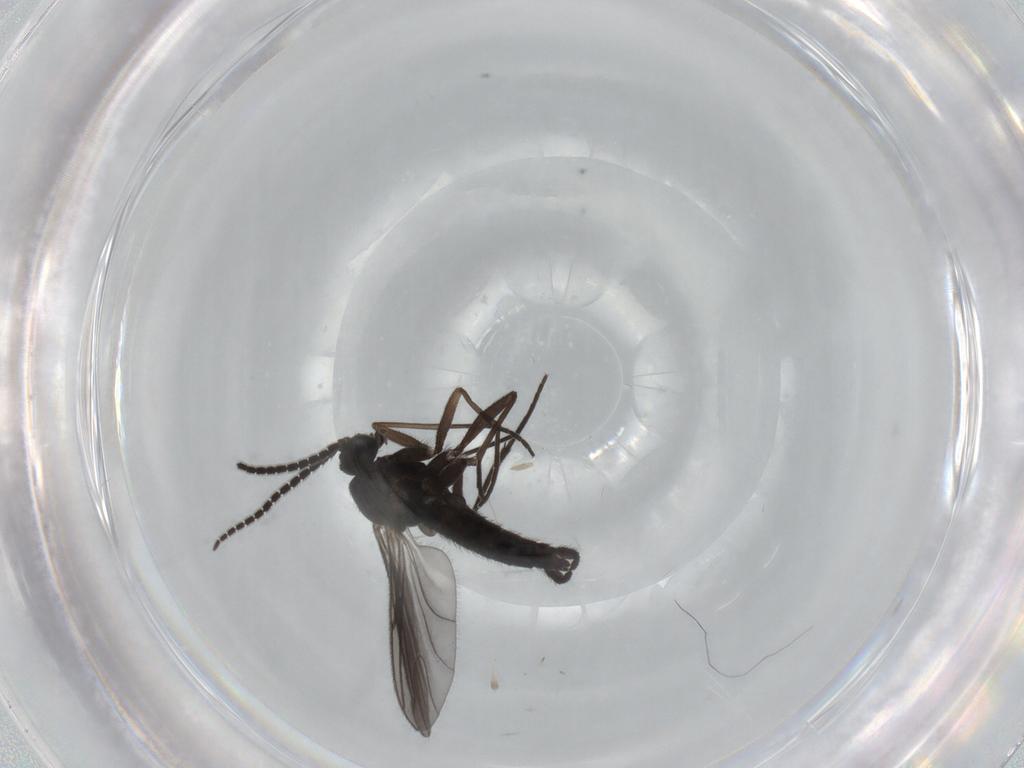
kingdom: Animalia
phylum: Arthropoda
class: Insecta
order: Diptera
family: Sciaridae
